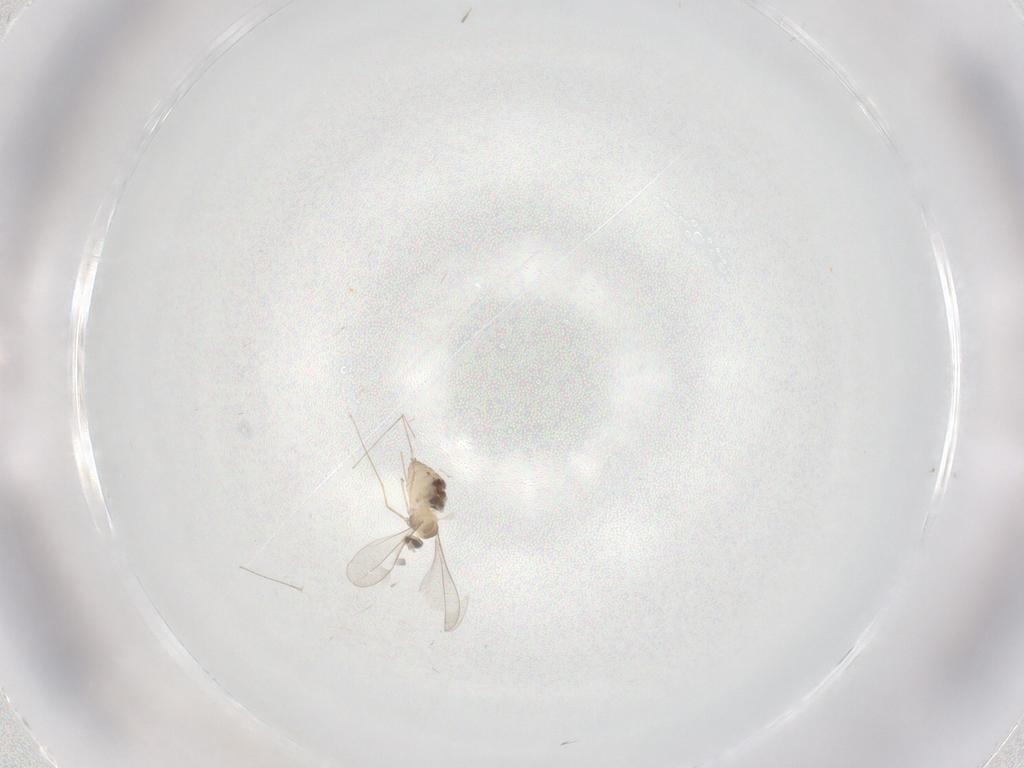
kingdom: Animalia
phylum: Arthropoda
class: Insecta
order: Diptera
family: Cecidomyiidae
